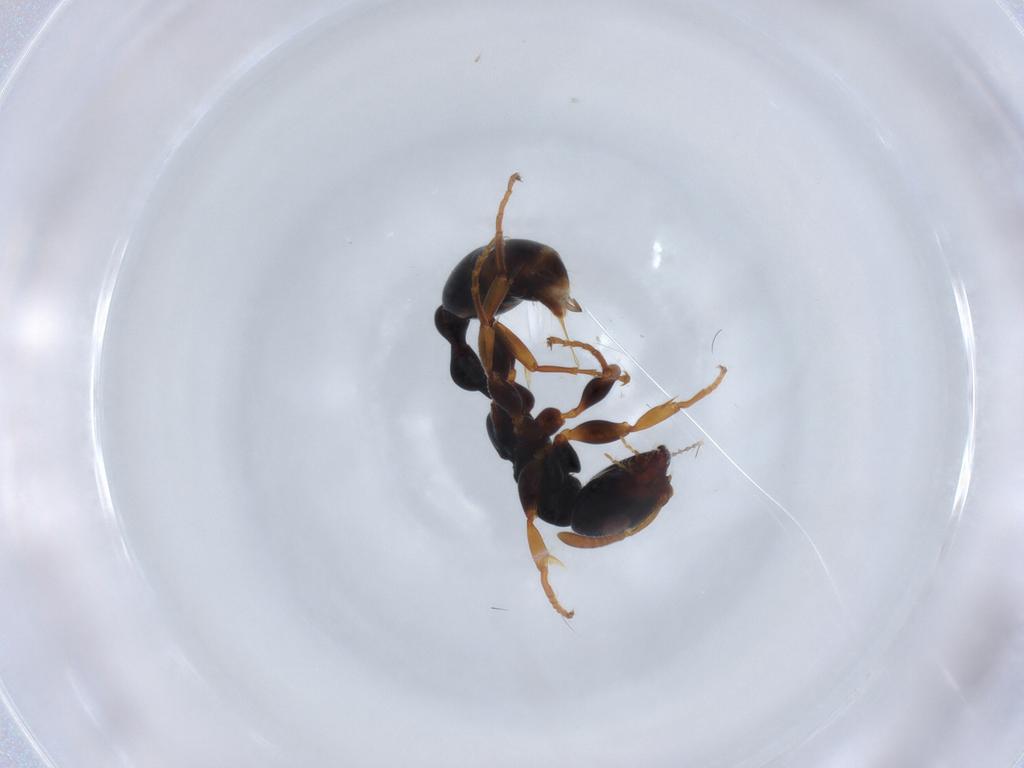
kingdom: Animalia
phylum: Arthropoda
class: Insecta
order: Hymenoptera
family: Formicidae
